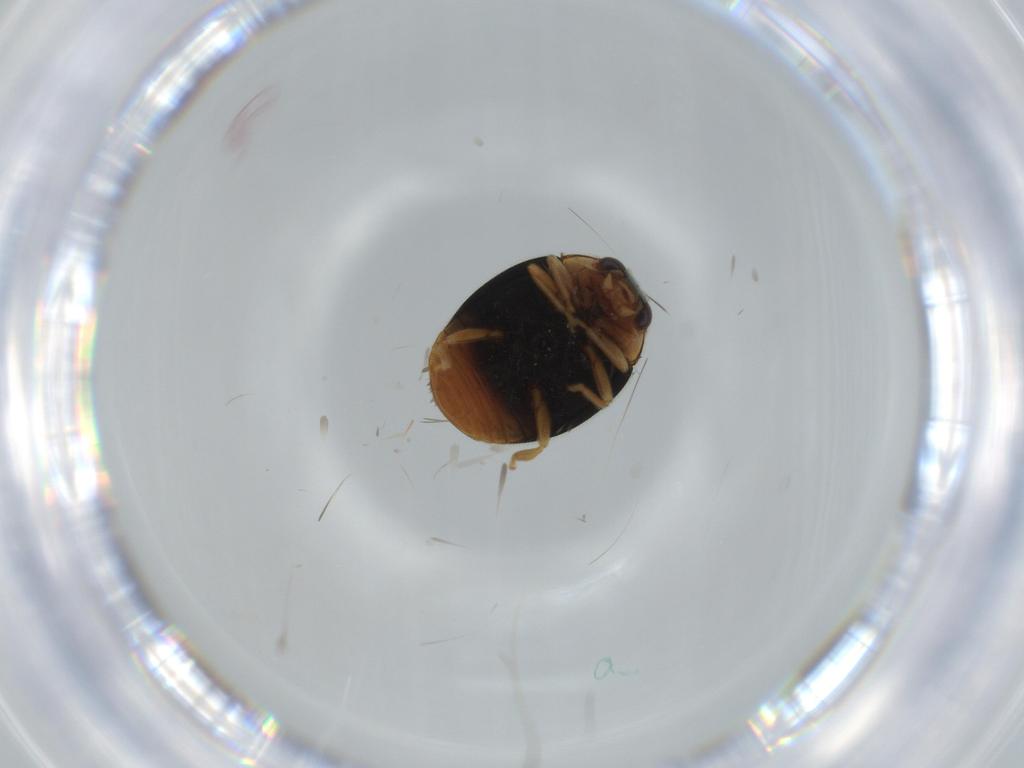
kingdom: Animalia
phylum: Arthropoda
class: Insecta
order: Coleoptera
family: Coccinellidae
